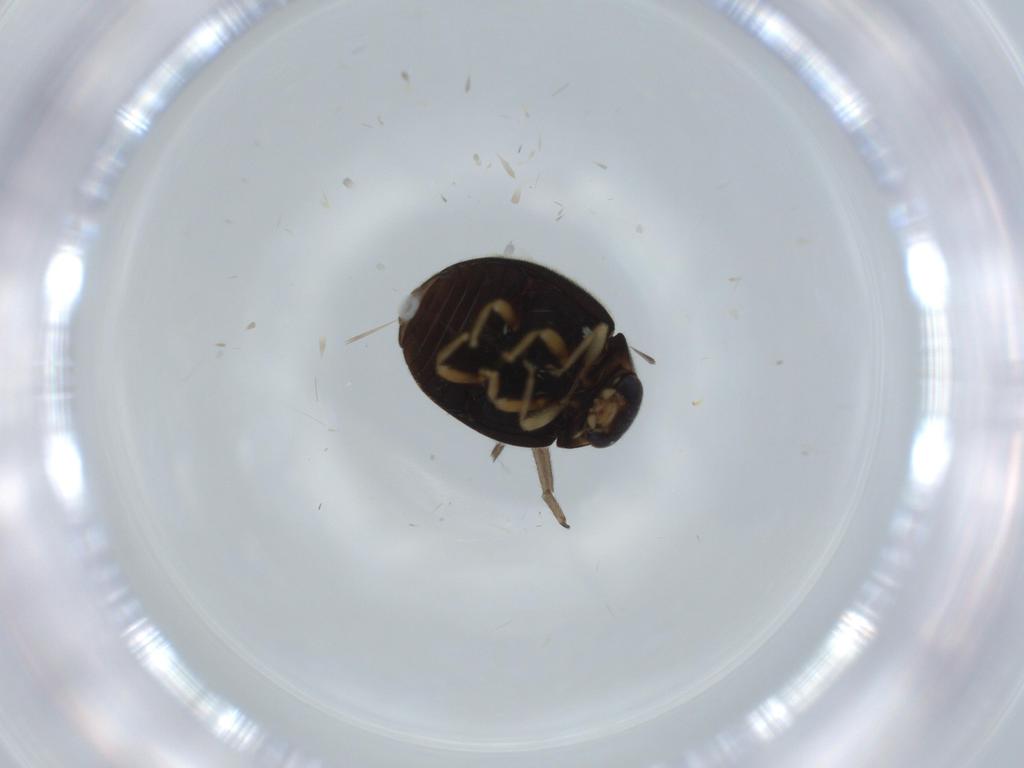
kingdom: Animalia
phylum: Arthropoda
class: Insecta
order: Coleoptera
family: Coccinellidae
